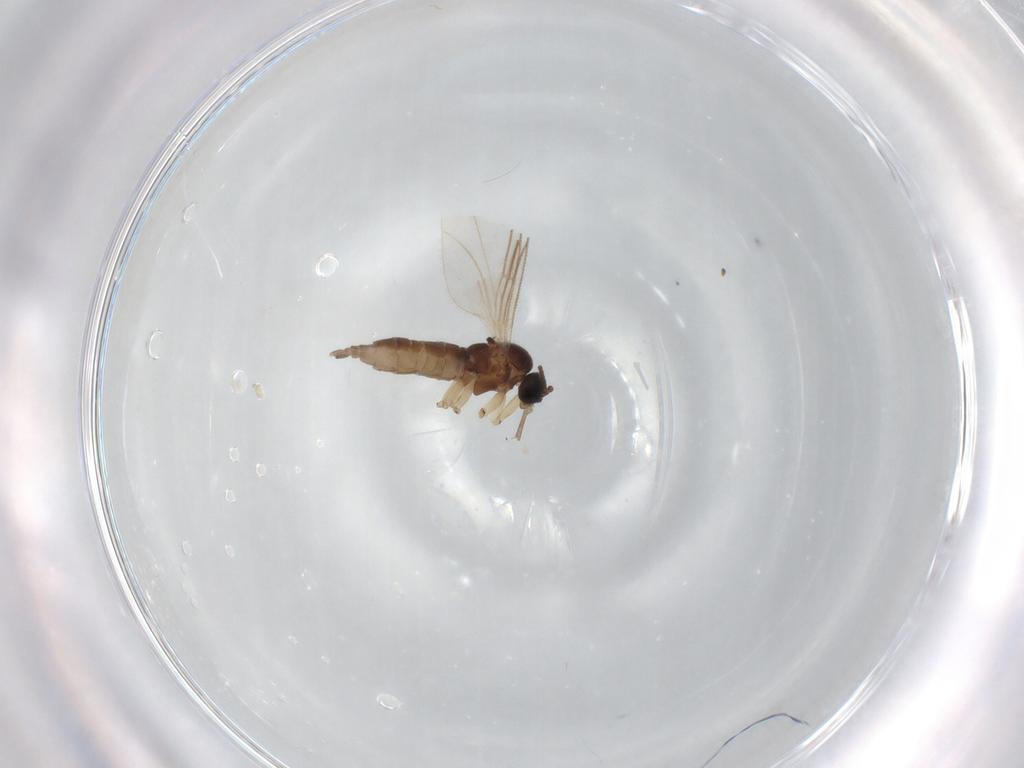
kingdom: Animalia
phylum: Arthropoda
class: Insecta
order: Diptera
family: Sciaridae
